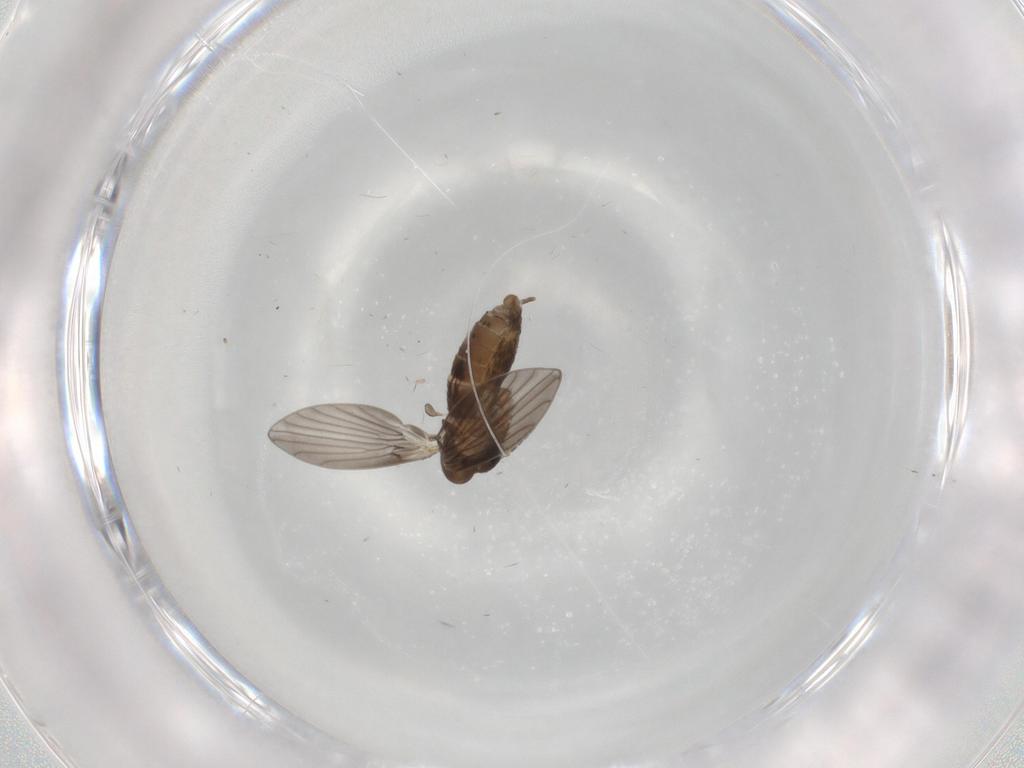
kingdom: Animalia
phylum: Arthropoda
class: Insecta
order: Diptera
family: Psychodidae
